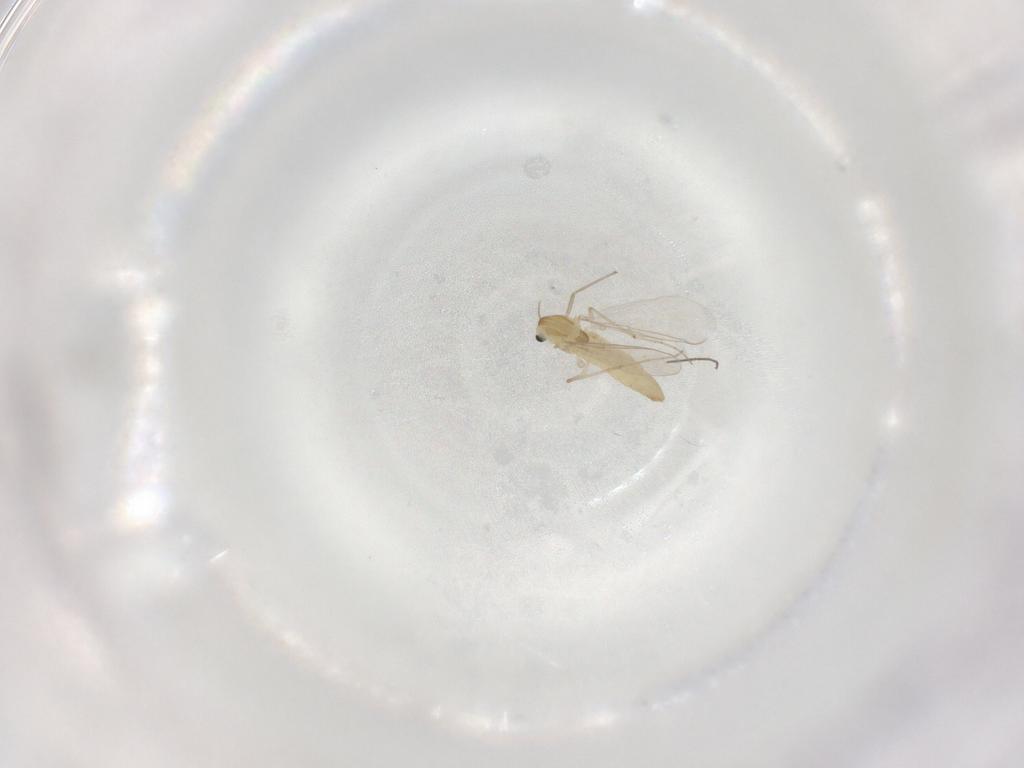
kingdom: Animalia
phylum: Arthropoda
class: Insecta
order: Diptera
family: Chironomidae
